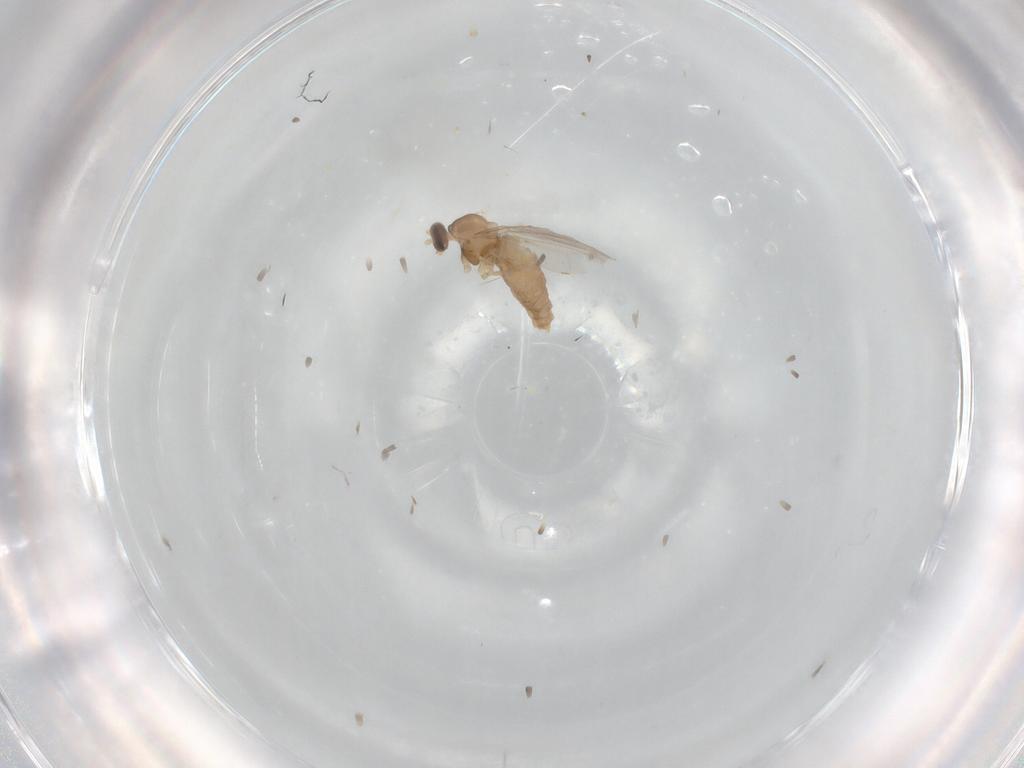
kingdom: Animalia
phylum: Arthropoda
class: Insecta
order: Diptera
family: Cecidomyiidae
